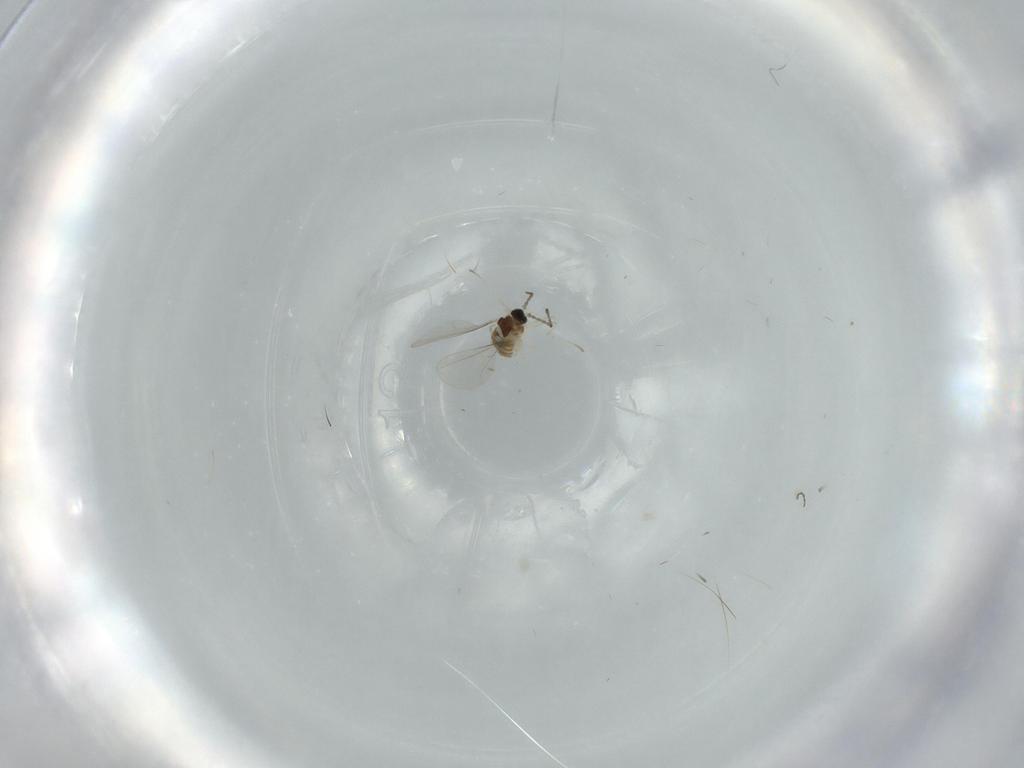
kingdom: Animalia
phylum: Arthropoda
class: Insecta
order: Diptera
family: Cecidomyiidae
